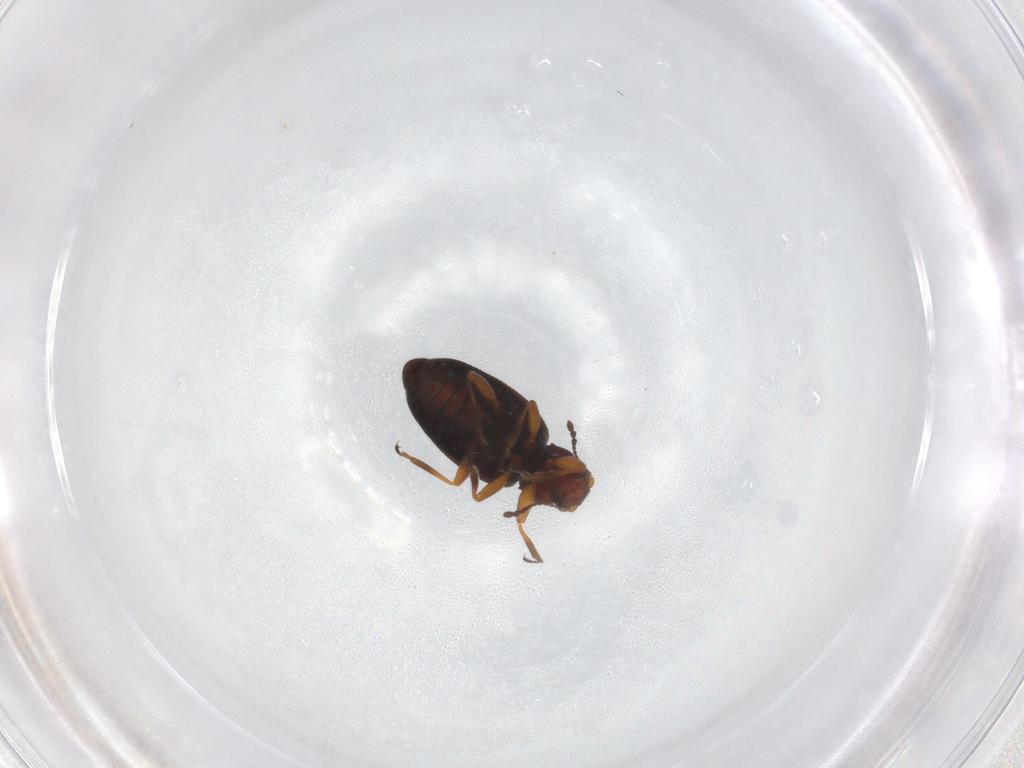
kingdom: Animalia
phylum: Arthropoda
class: Insecta
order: Coleoptera
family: Latridiidae
